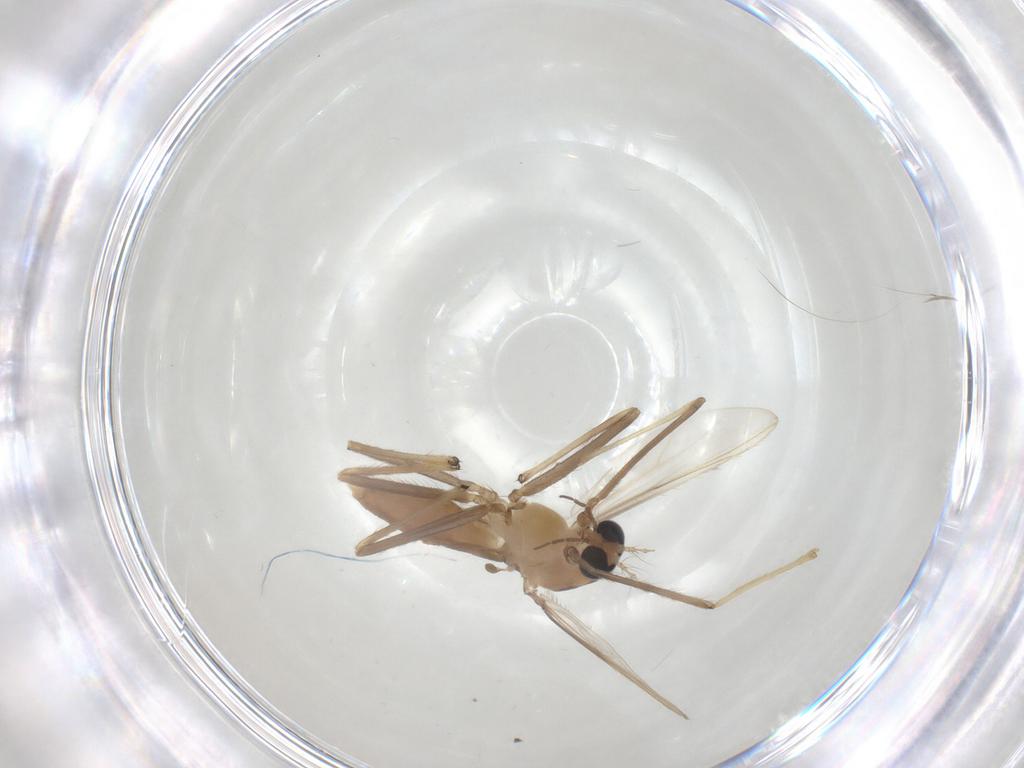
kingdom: Animalia
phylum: Arthropoda
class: Insecta
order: Diptera
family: Chironomidae
